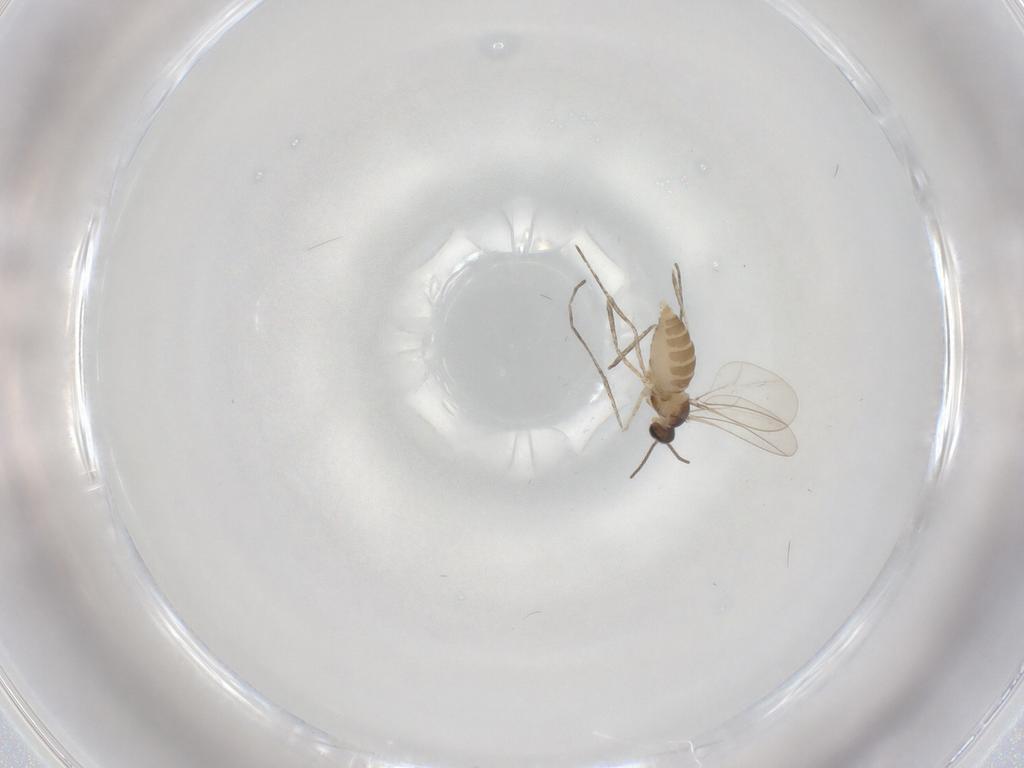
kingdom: Animalia
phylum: Arthropoda
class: Insecta
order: Diptera
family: Cecidomyiidae
